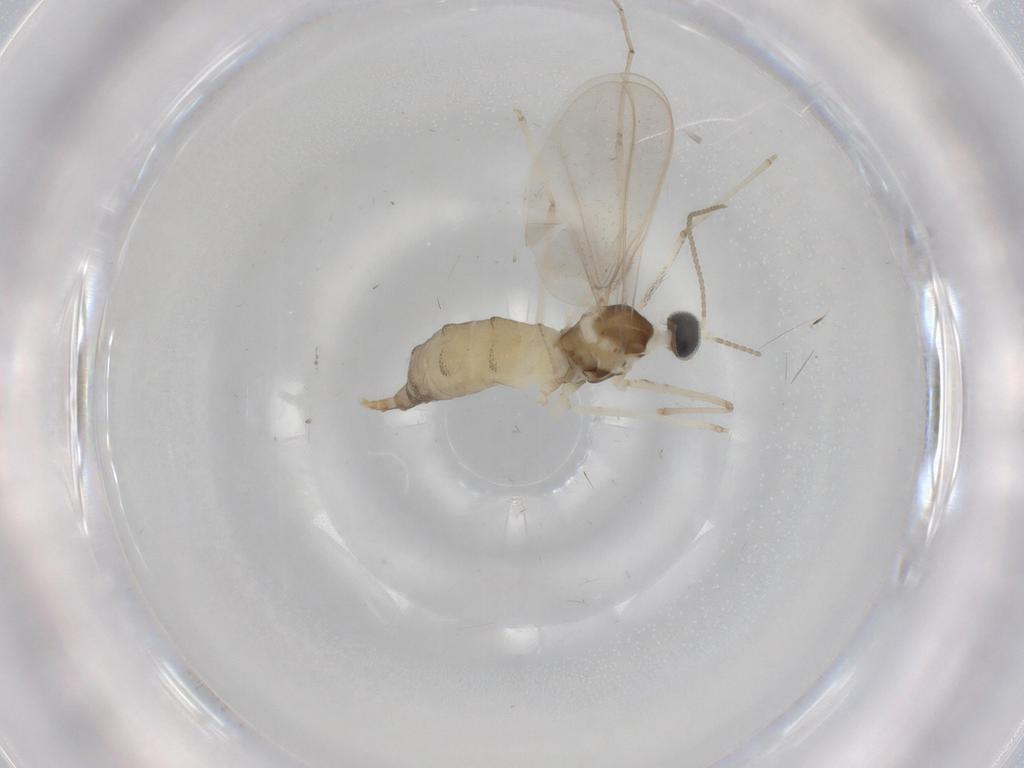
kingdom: Animalia
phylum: Arthropoda
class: Insecta
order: Diptera
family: Cecidomyiidae
